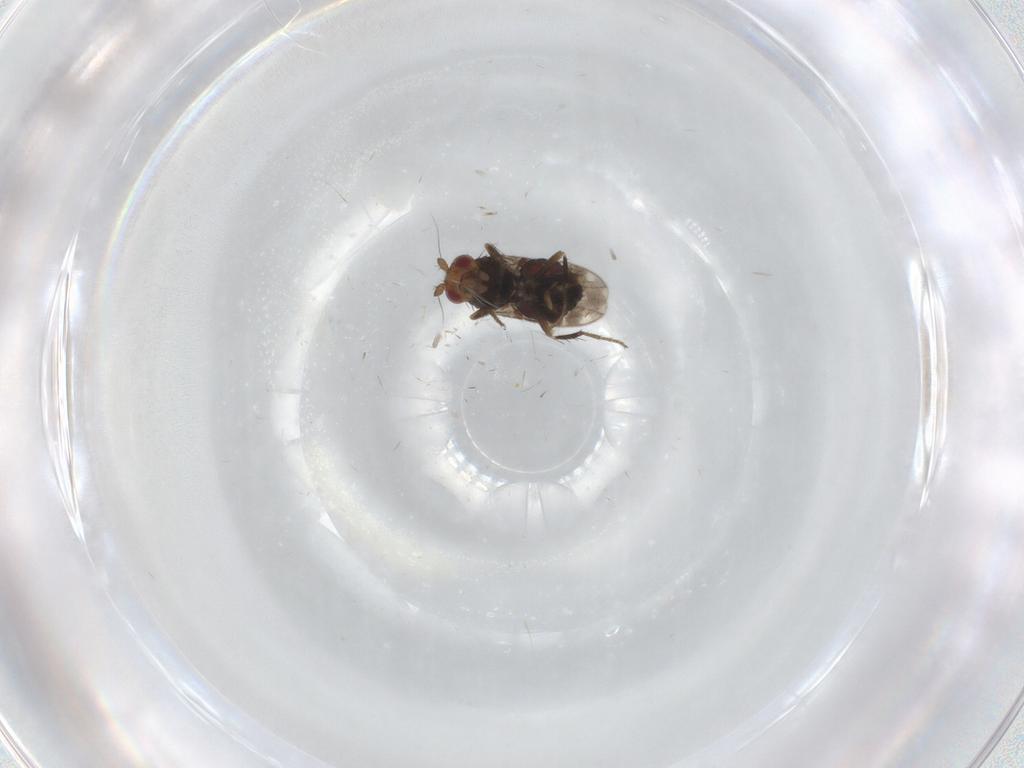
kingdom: Animalia
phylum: Arthropoda
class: Insecta
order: Diptera
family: Sphaeroceridae
